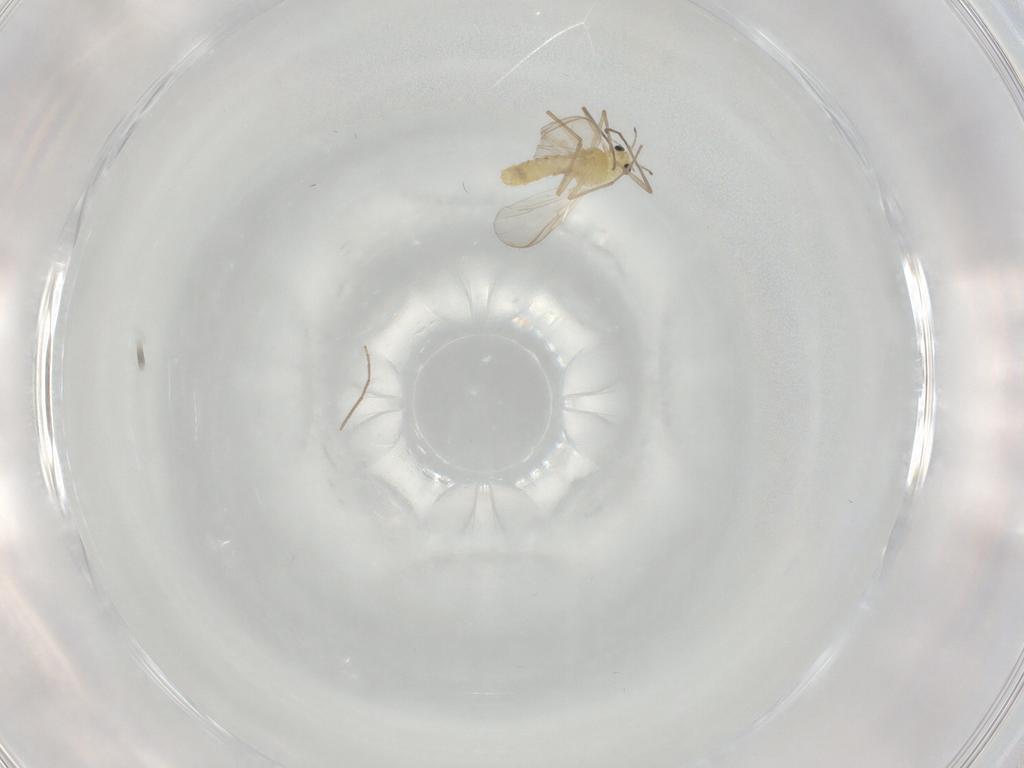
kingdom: Animalia
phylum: Arthropoda
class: Insecta
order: Diptera
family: Chironomidae
